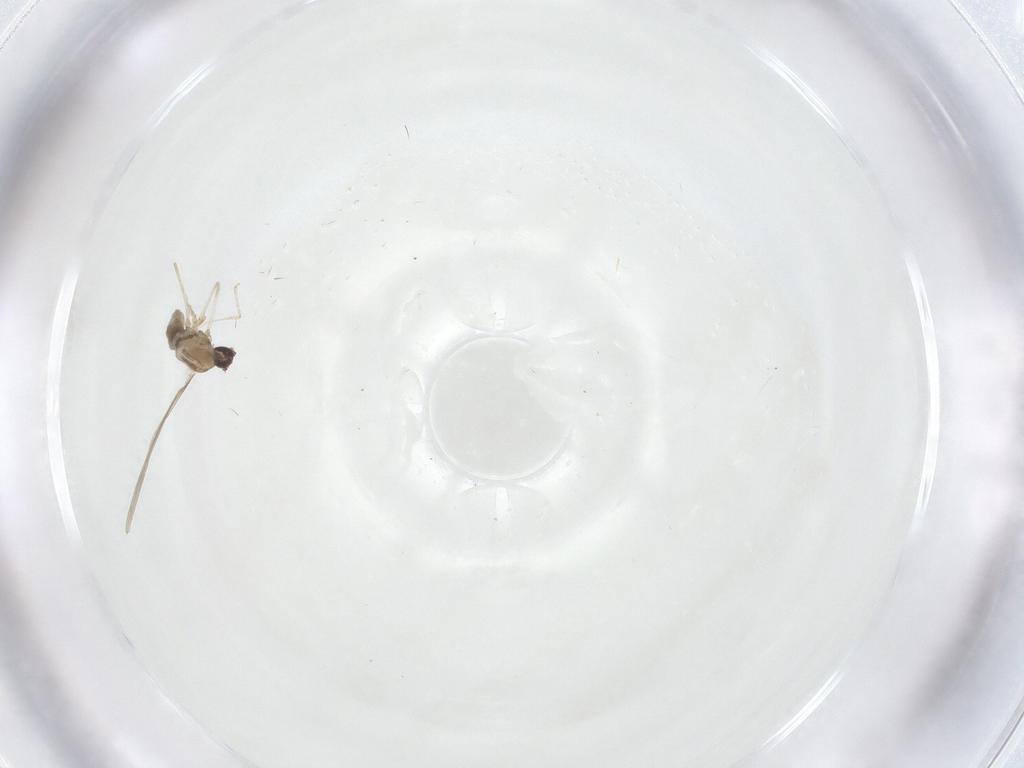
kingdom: Animalia
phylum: Arthropoda
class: Insecta
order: Diptera
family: Cecidomyiidae
